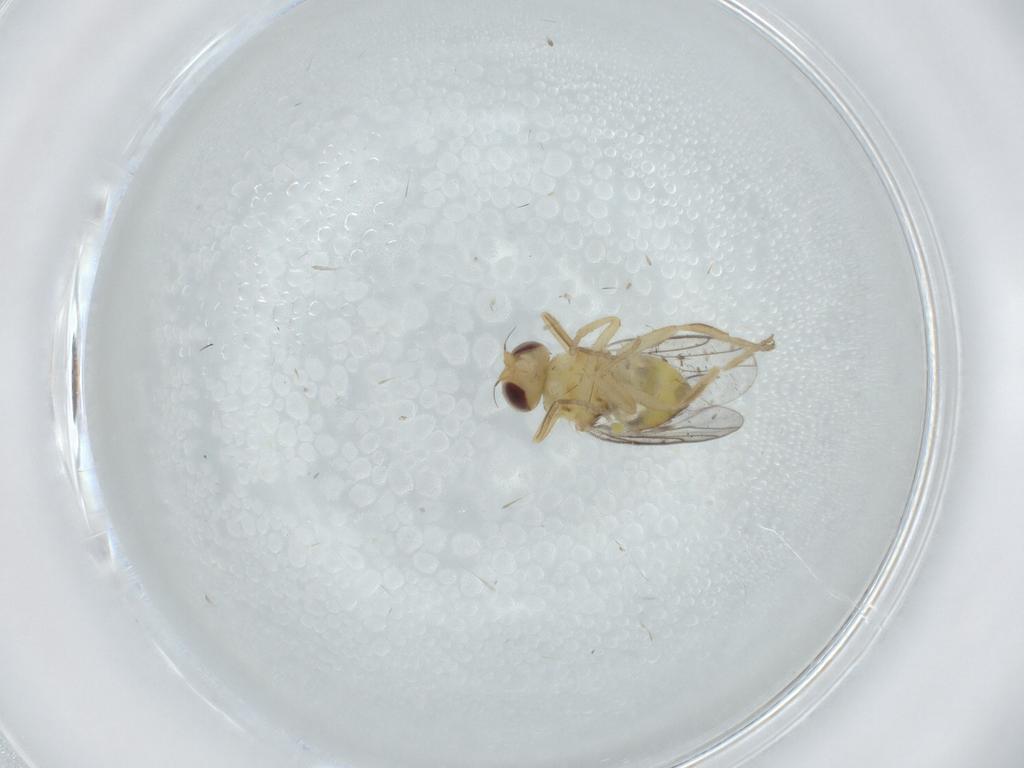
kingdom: Animalia
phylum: Arthropoda
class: Insecta
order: Diptera
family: Chloropidae
